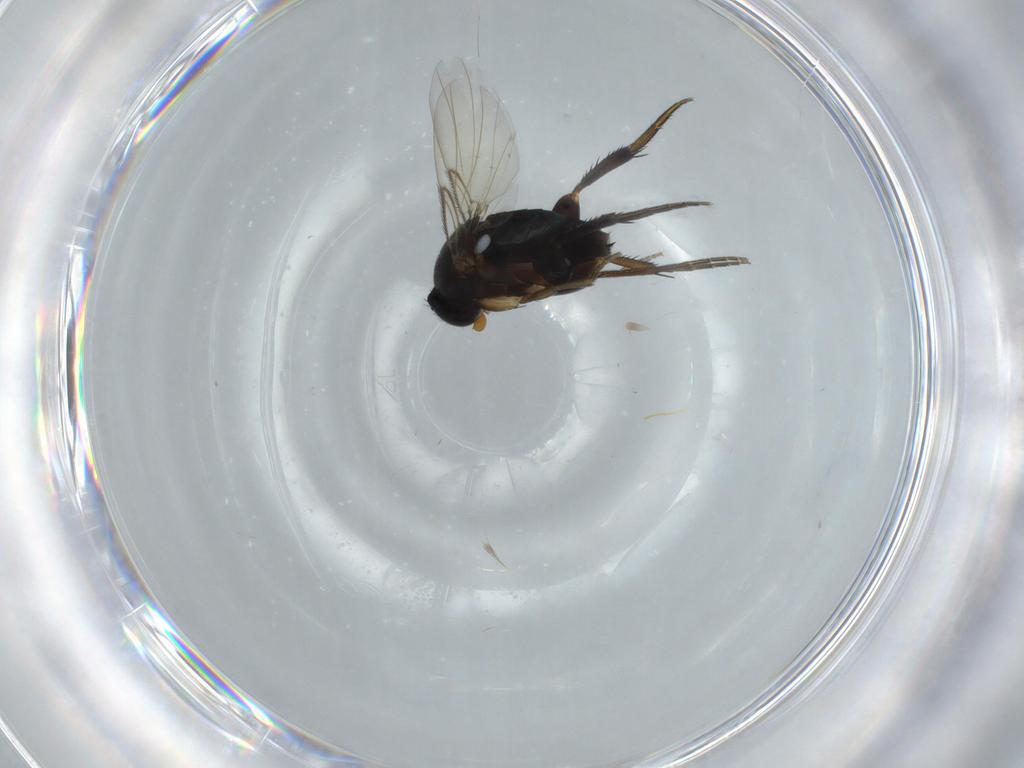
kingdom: Animalia
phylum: Arthropoda
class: Insecta
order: Diptera
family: Phoridae
